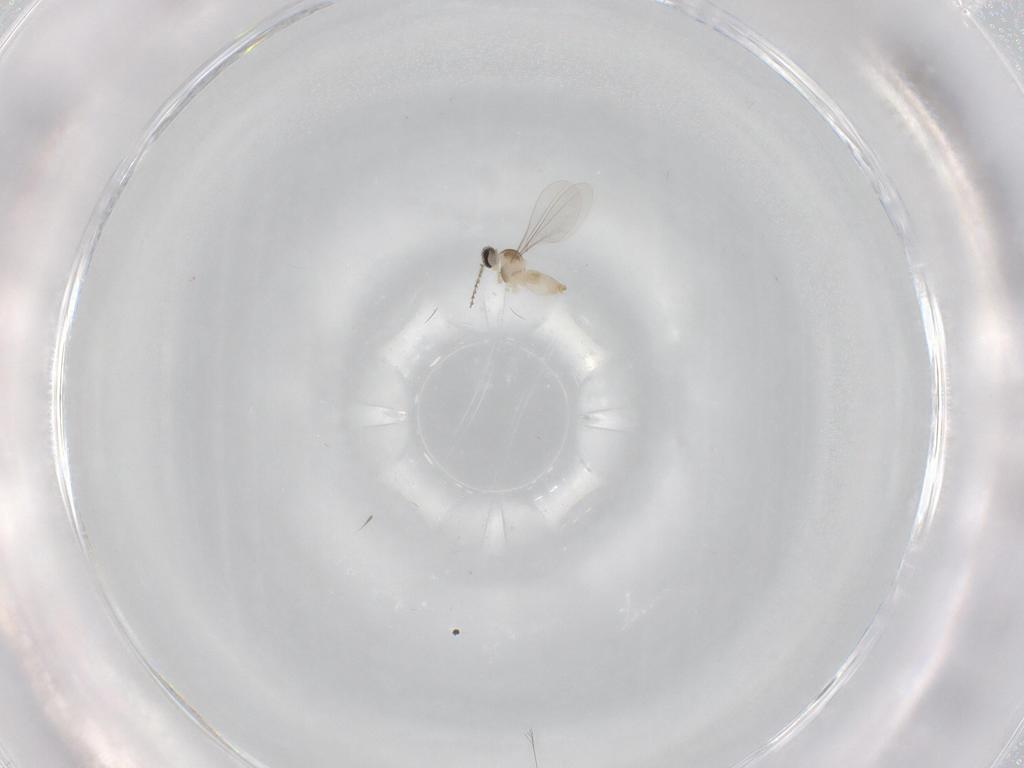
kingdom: Animalia
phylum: Arthropoda
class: Insecta
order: Diptera
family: Cecidomyiidae
